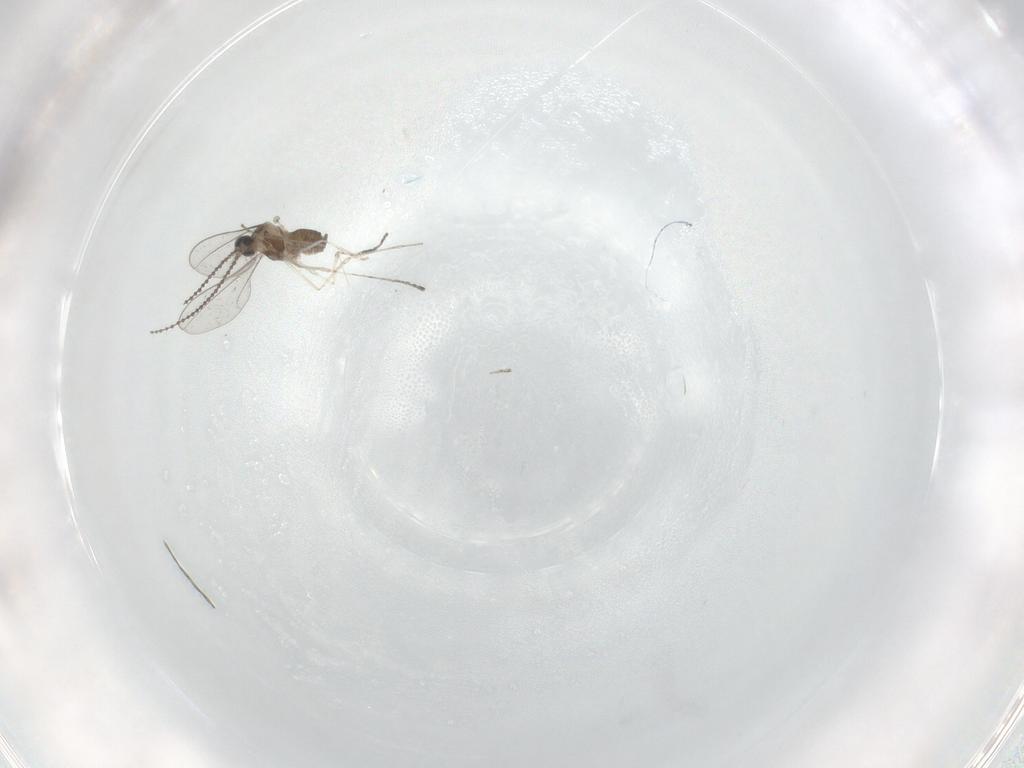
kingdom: Animalia
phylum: Arthropoda
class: Insecta
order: Diptera
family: Cecidomyiidae
